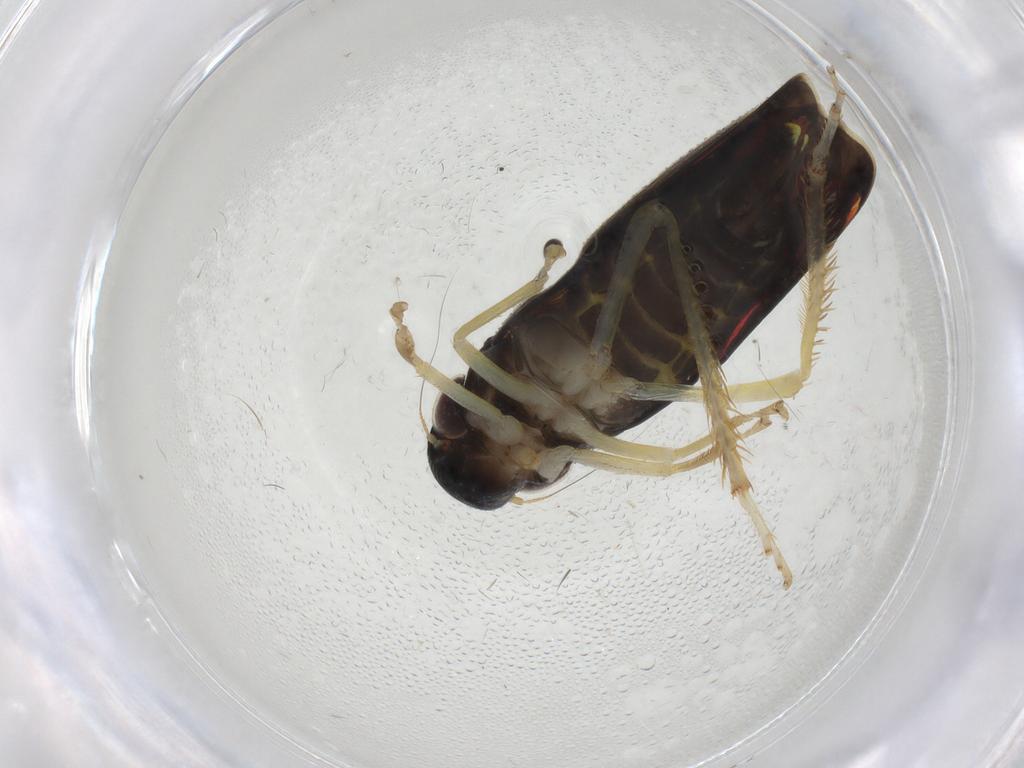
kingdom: Animalia
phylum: Arthropoda
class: Insecta
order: Hemiptera
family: Cicadellidae
